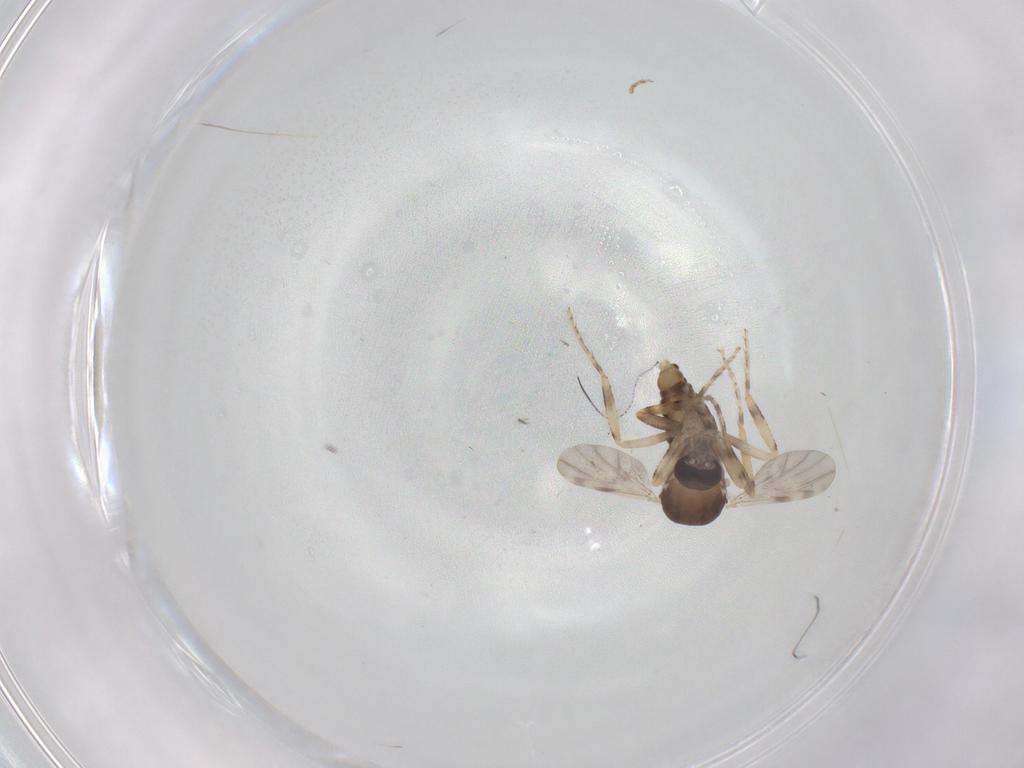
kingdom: Animalia
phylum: Arthropoda
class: Insecta
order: Diptera
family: Ceratopogonidae
